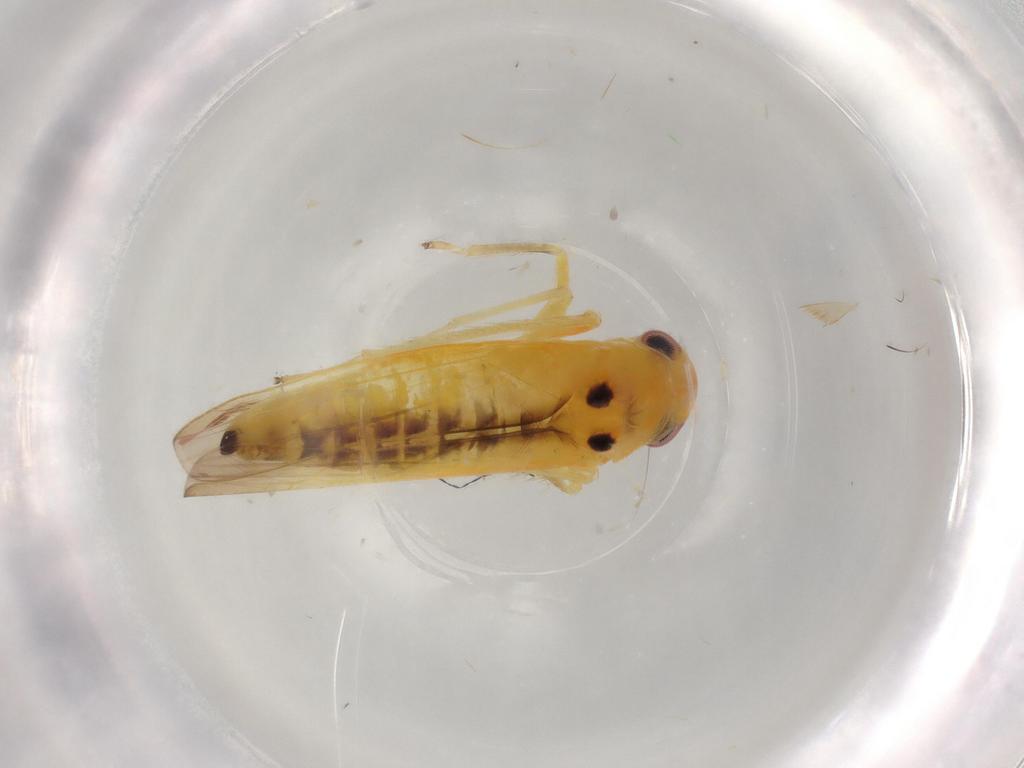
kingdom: Animalia
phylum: Arthropoda
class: Insecta
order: Hemiptera
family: Cicadellidae
